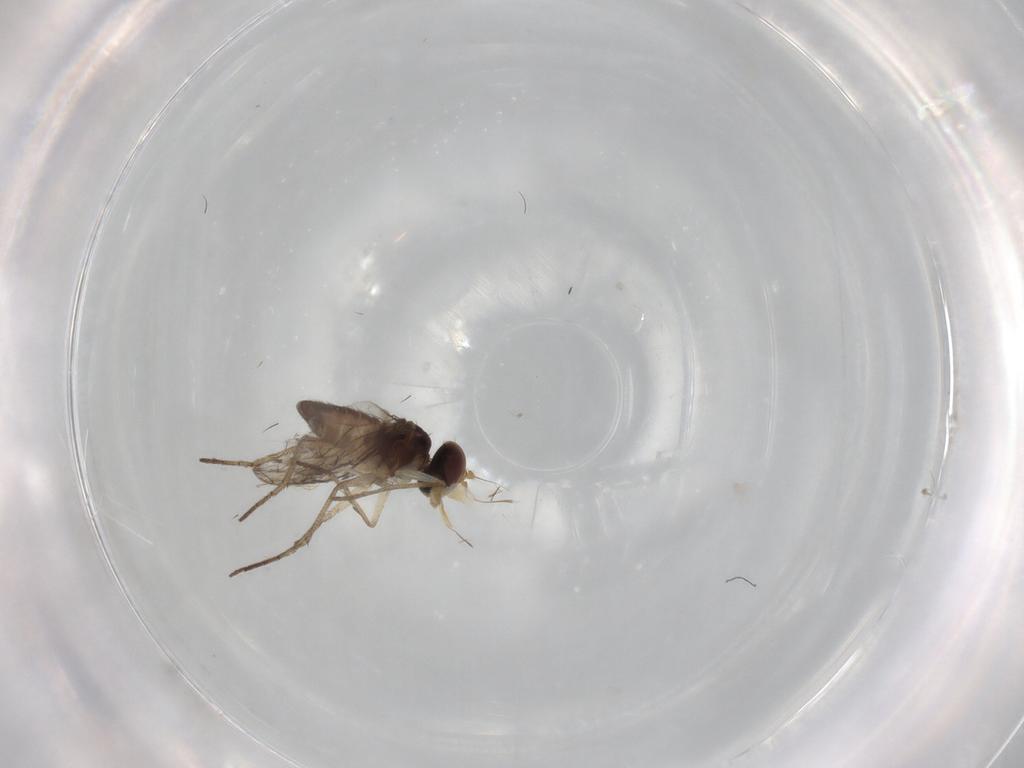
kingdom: Animalia
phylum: Arthropoda
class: Insecta
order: Diptera
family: Dolichopodidae
